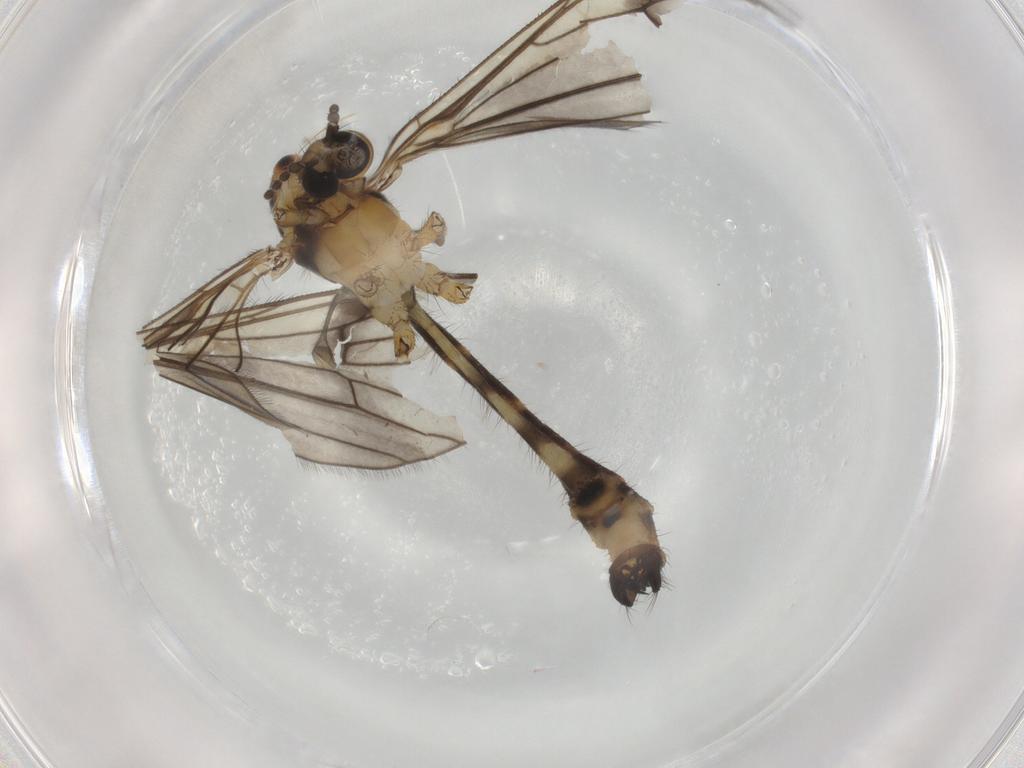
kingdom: Animalia
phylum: Arthropoda
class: Insecta
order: Diptera
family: Limoniidae
